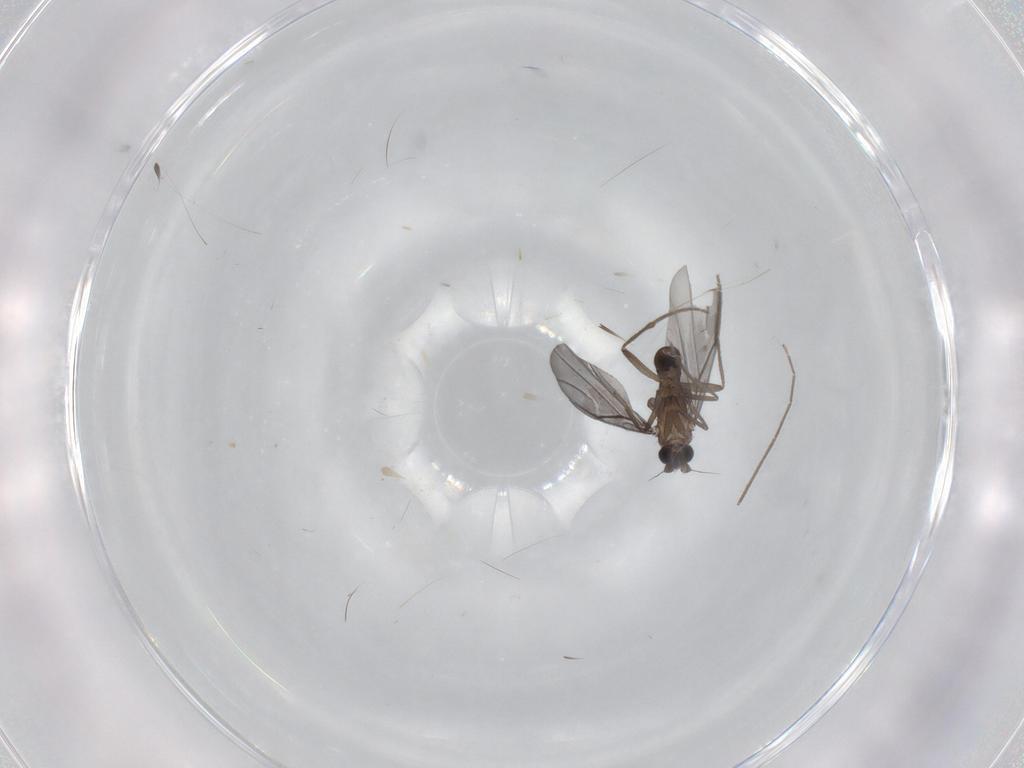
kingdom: Animalia
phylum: Arthropoda
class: Insecta
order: Diptera
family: Phoridae
